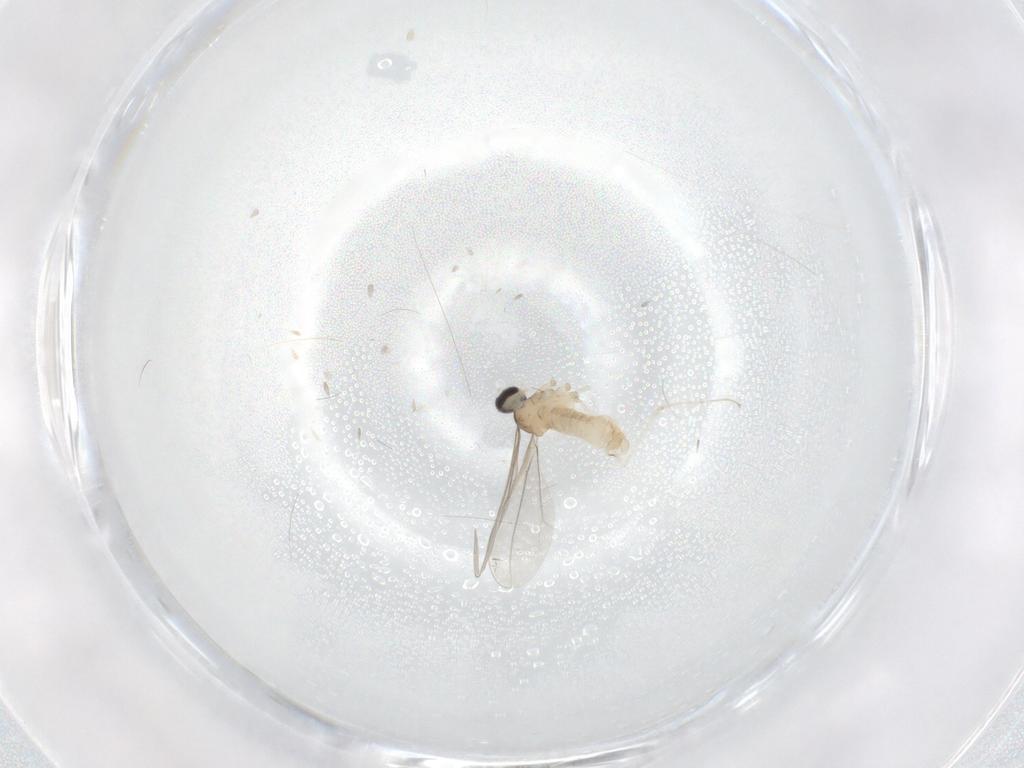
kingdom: Animalia
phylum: Arthropoda
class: Insecta
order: Diptera
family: Cecidomyiidae
